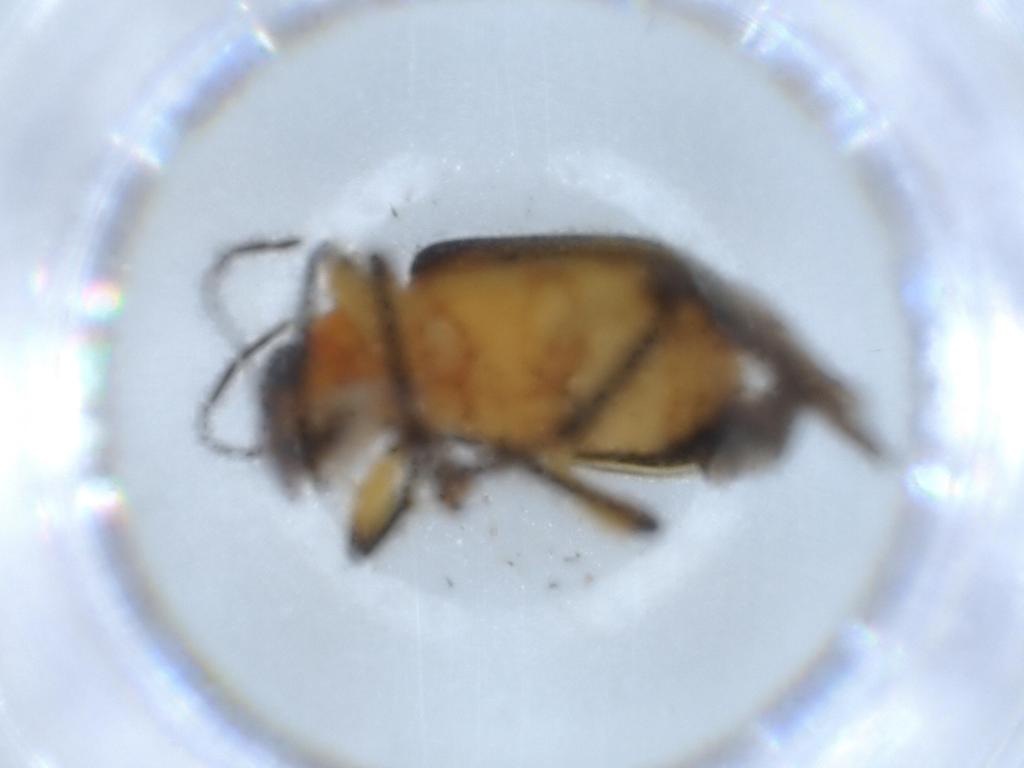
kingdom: Animalia
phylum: Arthropoda
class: Insecta
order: Coleoptera
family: Attelabidae
